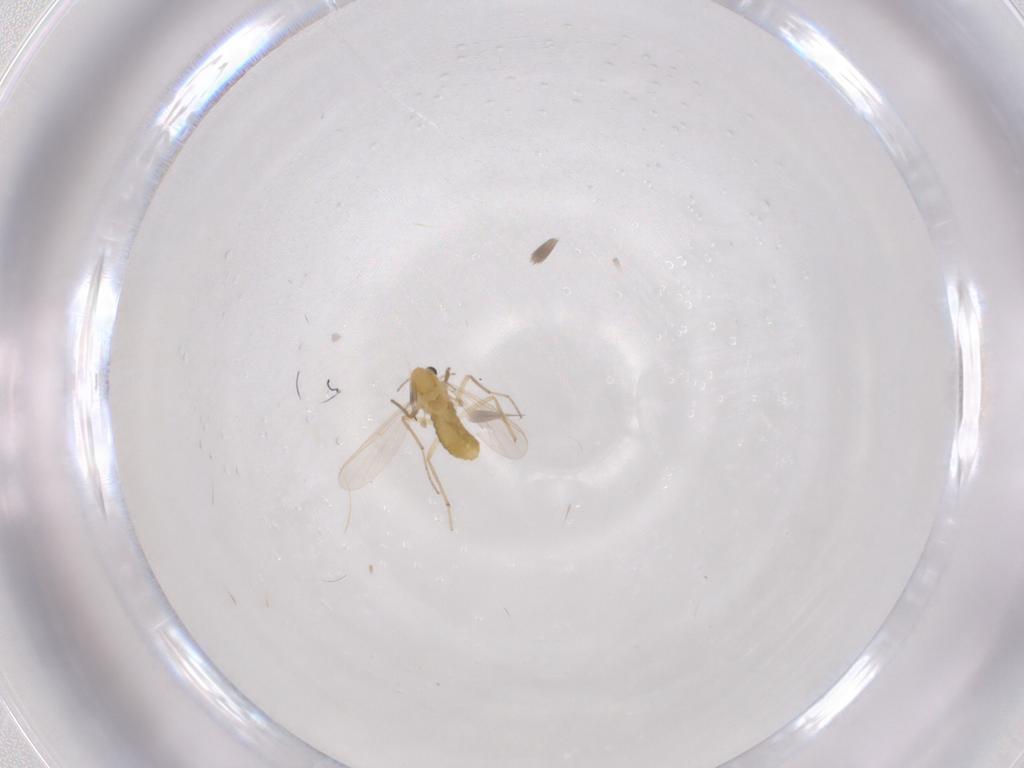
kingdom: Animalia
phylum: Arthropoda
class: Insecta
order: Diptera
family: Chironomidae
